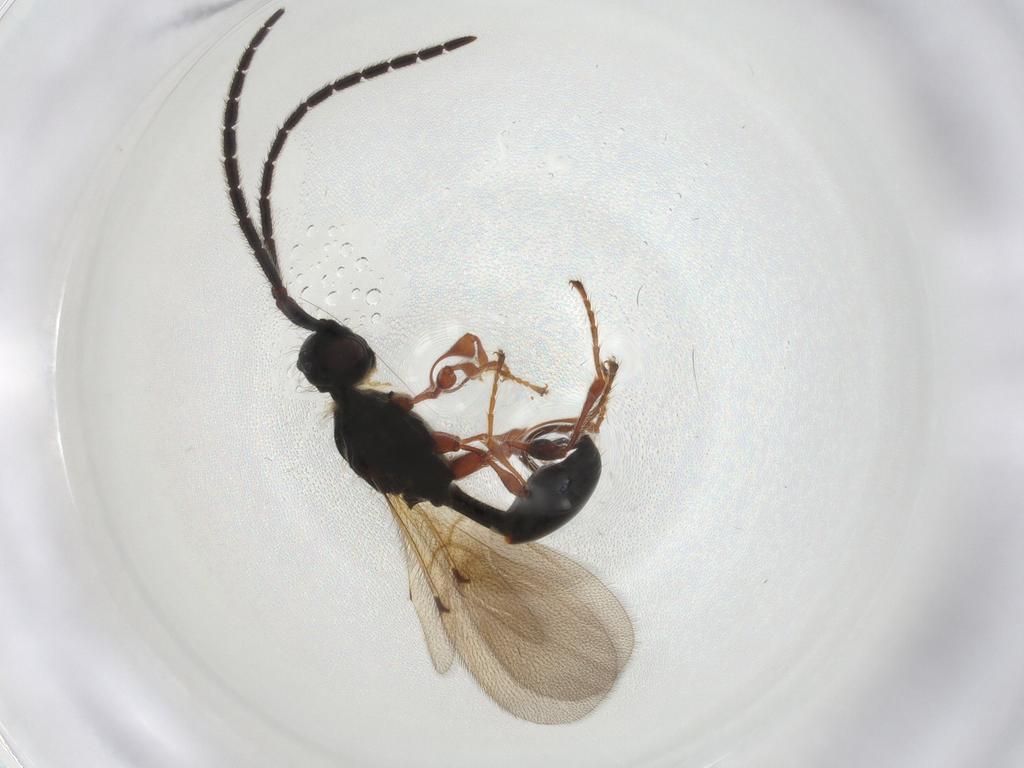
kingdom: Animalia
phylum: Arthropoda
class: Insecta
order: Hymenoptera
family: Diapriidae
